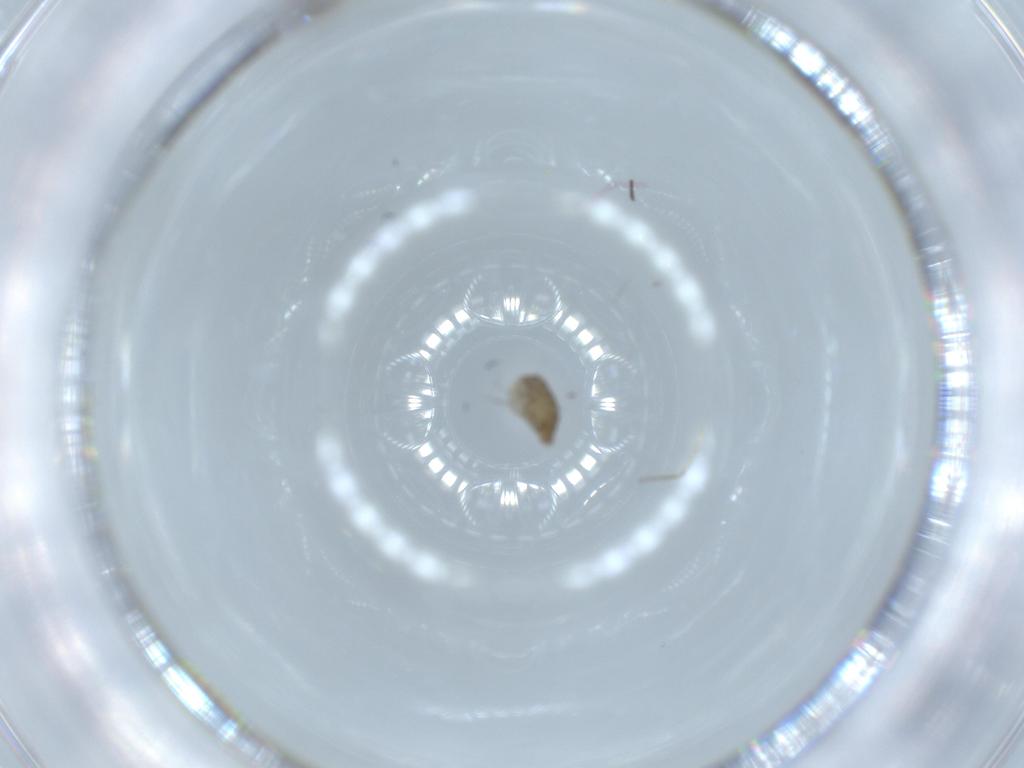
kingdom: Animalia
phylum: Arthropoda
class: Insecta
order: Diptera
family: Chironomidae
